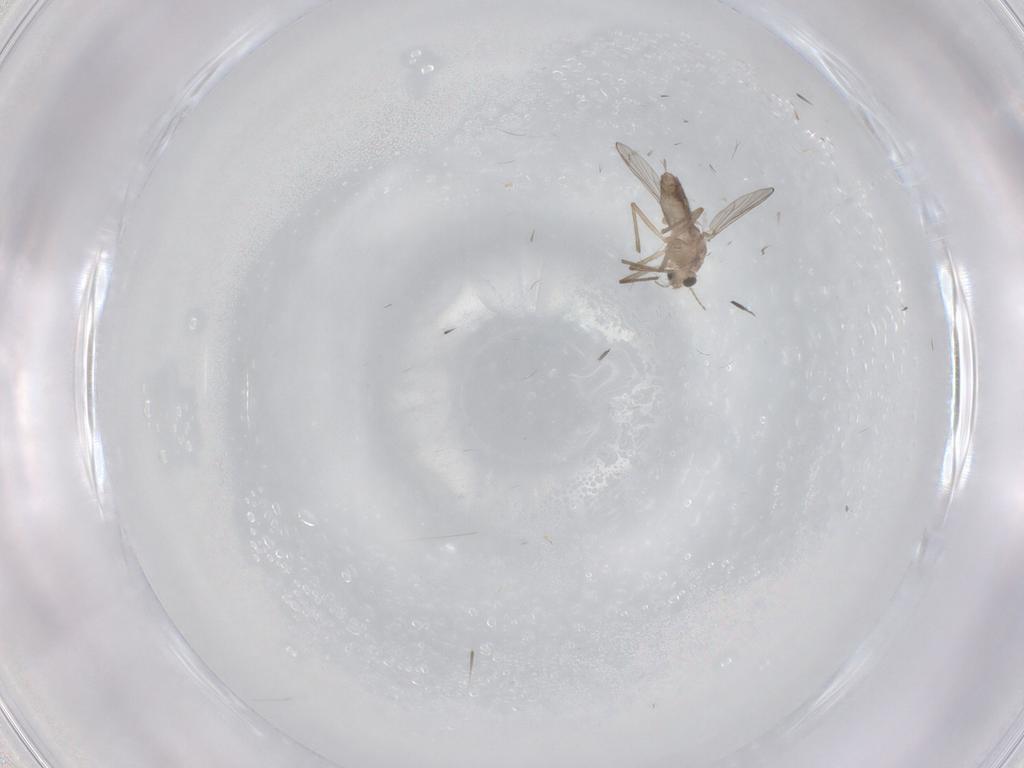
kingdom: Animalia
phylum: Arthropoda
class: Insecta
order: Diptera
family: Chironomidae
